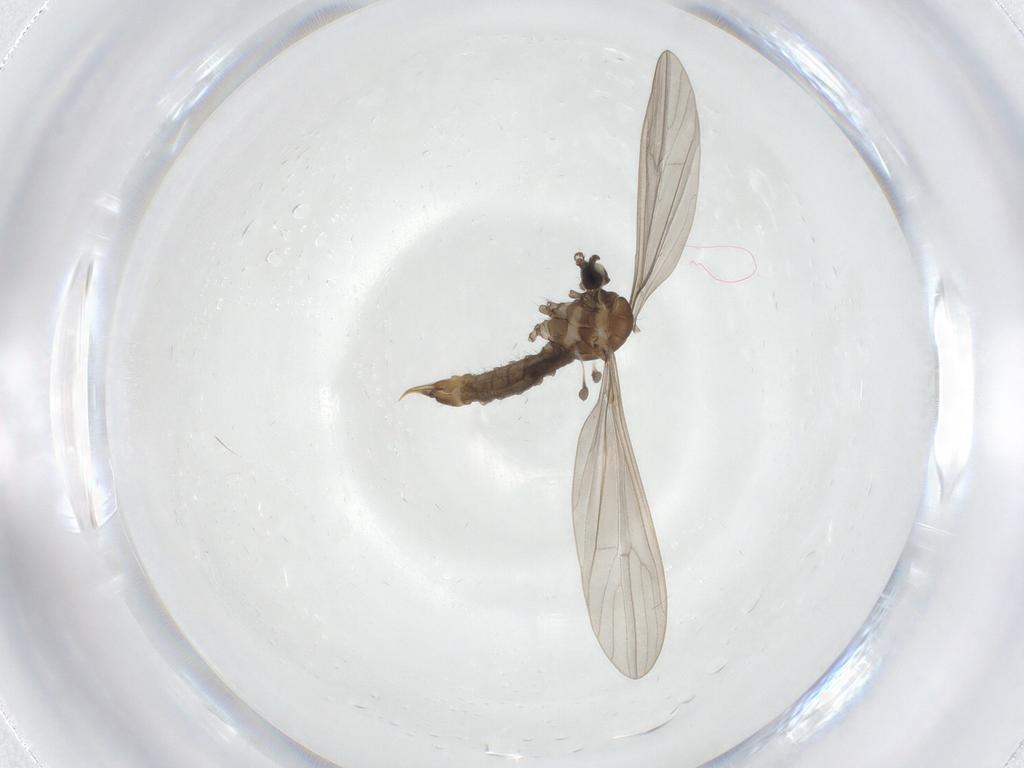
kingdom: Animalia
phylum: Arthropoda
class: Insecta
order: Diptera
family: Limoniidae
